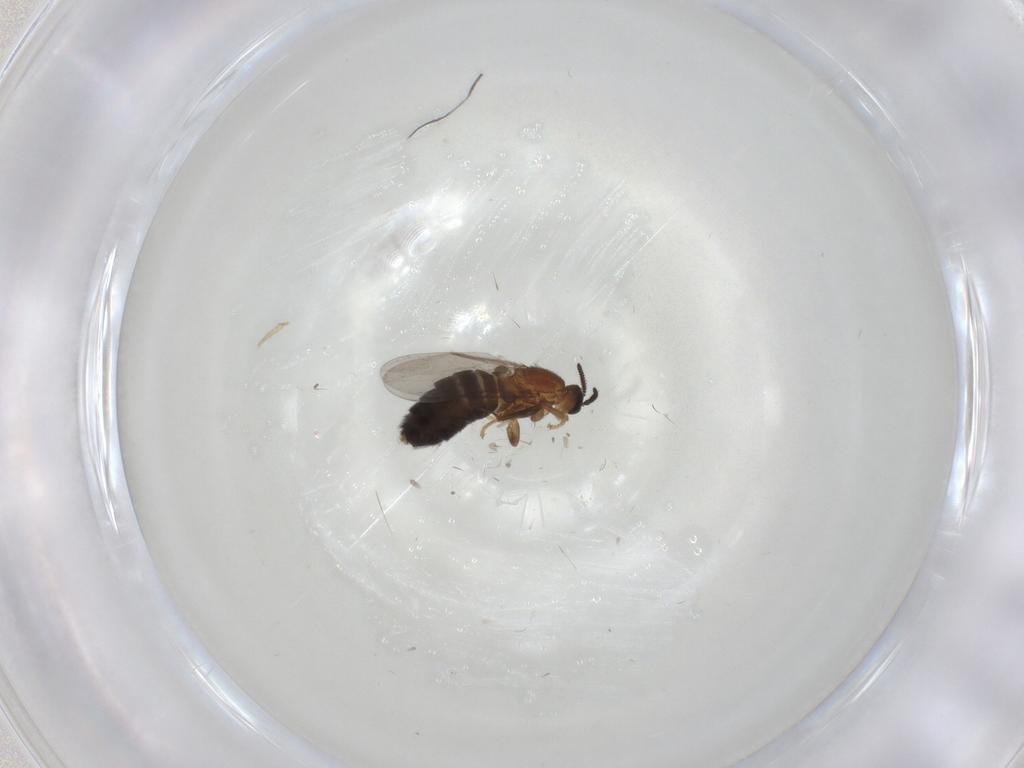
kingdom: Animalia
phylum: Arthropoda
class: Insecta
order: Diptera
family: Scatopsidae
